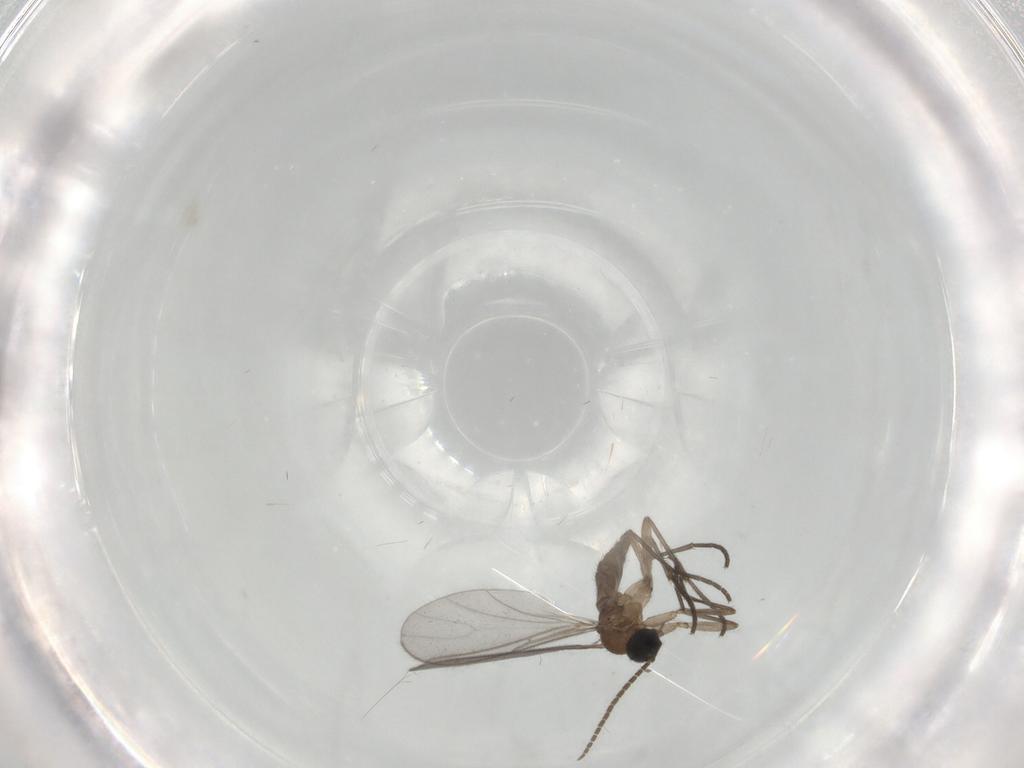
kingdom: Animalia
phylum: Arthropoda
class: Insecta
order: Diptera
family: Sciaridae
